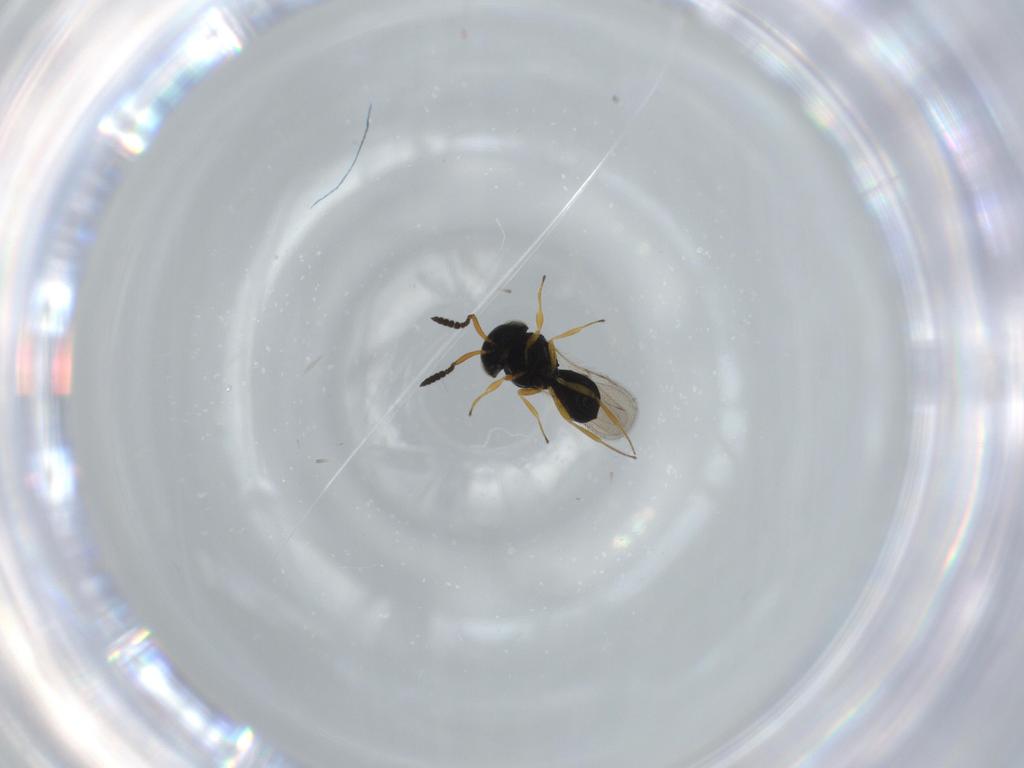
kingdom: Animalia
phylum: Arthropoda
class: Insecta
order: Hymenoptera
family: Scelionidae
